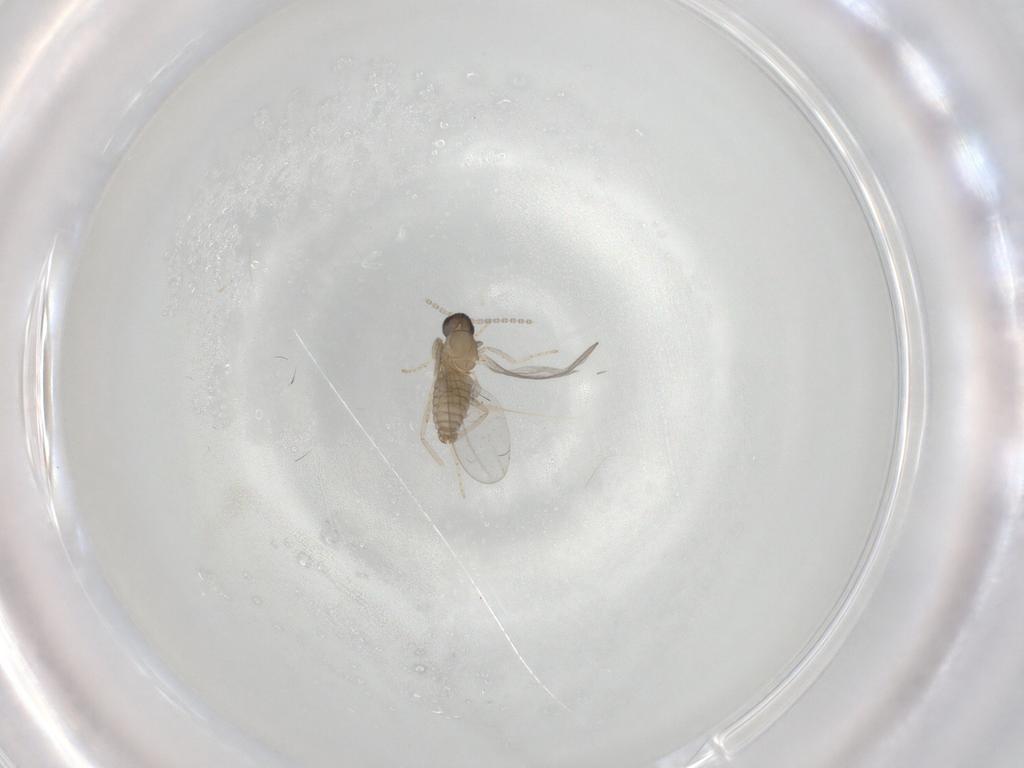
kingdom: Animalia
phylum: Arthropoda
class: Insecta
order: Diptera
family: Cecidomyiidae
